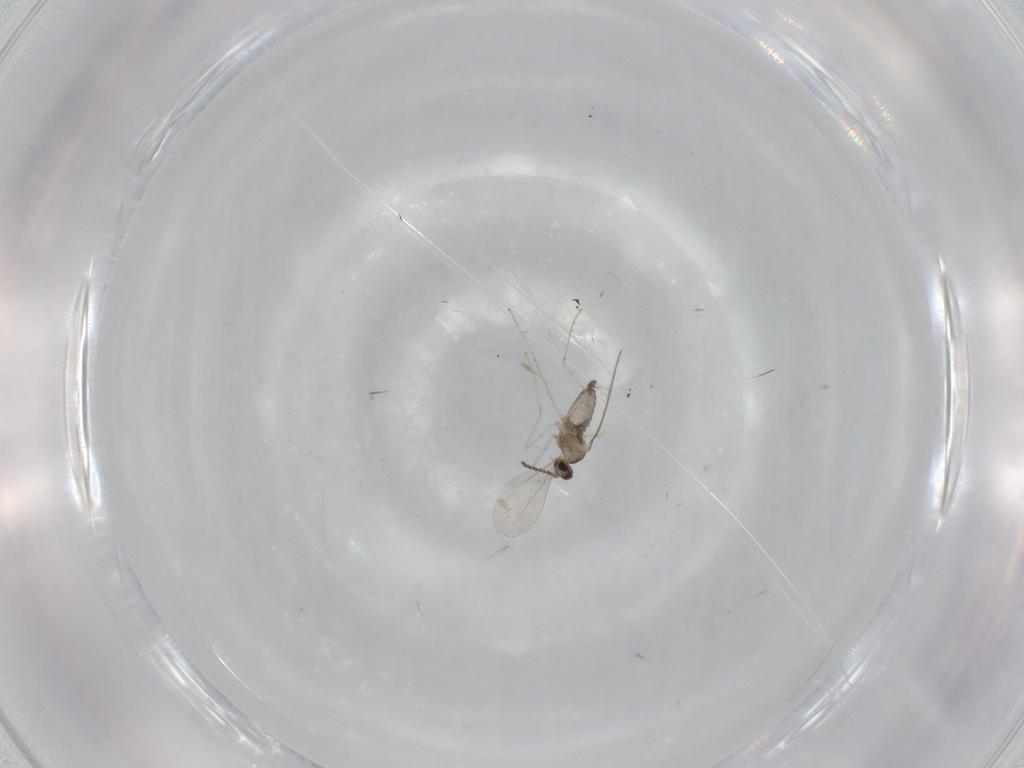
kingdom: Animalia
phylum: Arthropoda
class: Insecta
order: Diptera
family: Cecidomyiidae
